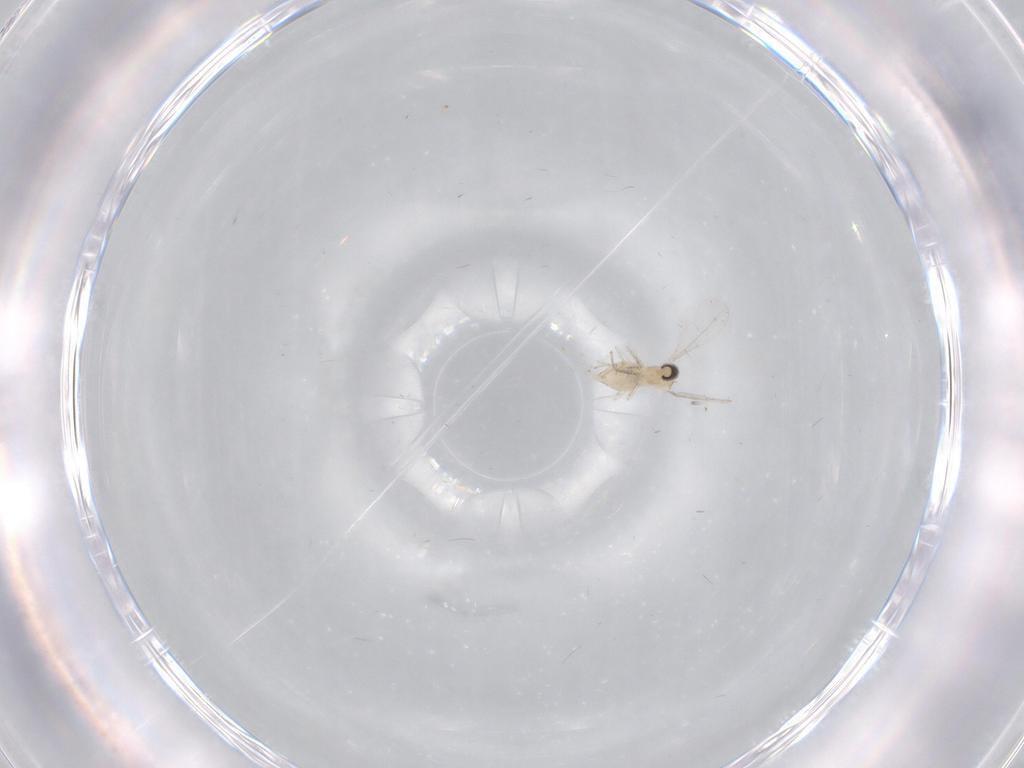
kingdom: Animalia
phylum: Arthropoda
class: Insecta
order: Diptera
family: Cecidomyiidae
